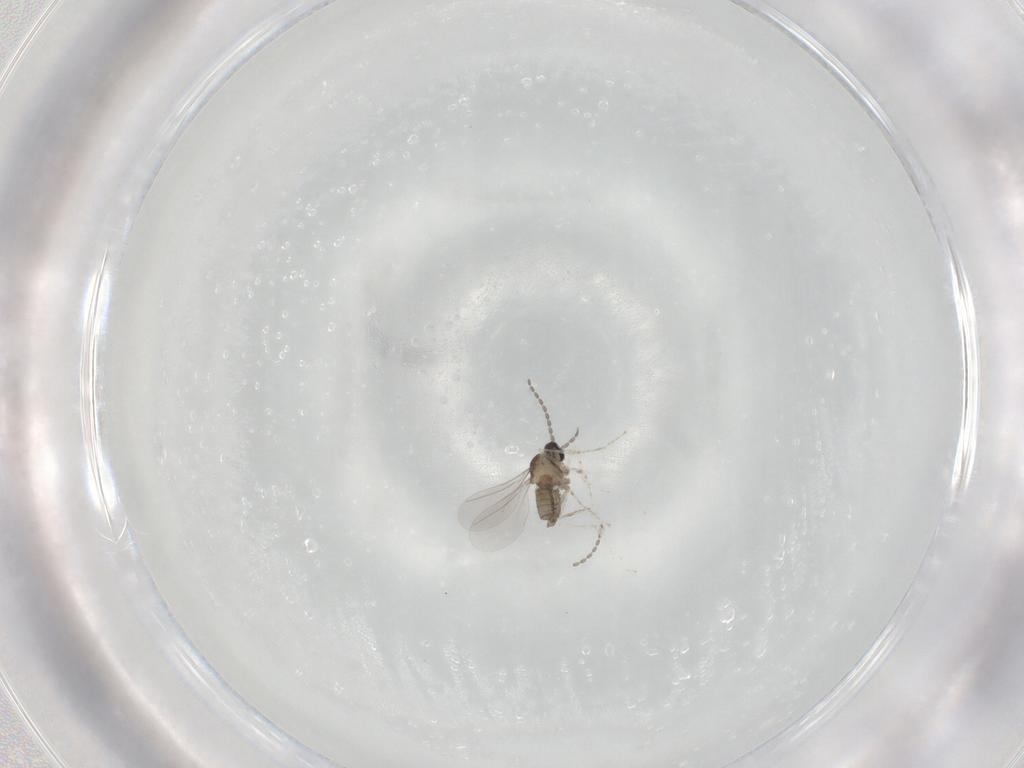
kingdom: Animalia
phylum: Arthropoda
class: Insecta
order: Diptera
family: Cecidomyiidae
